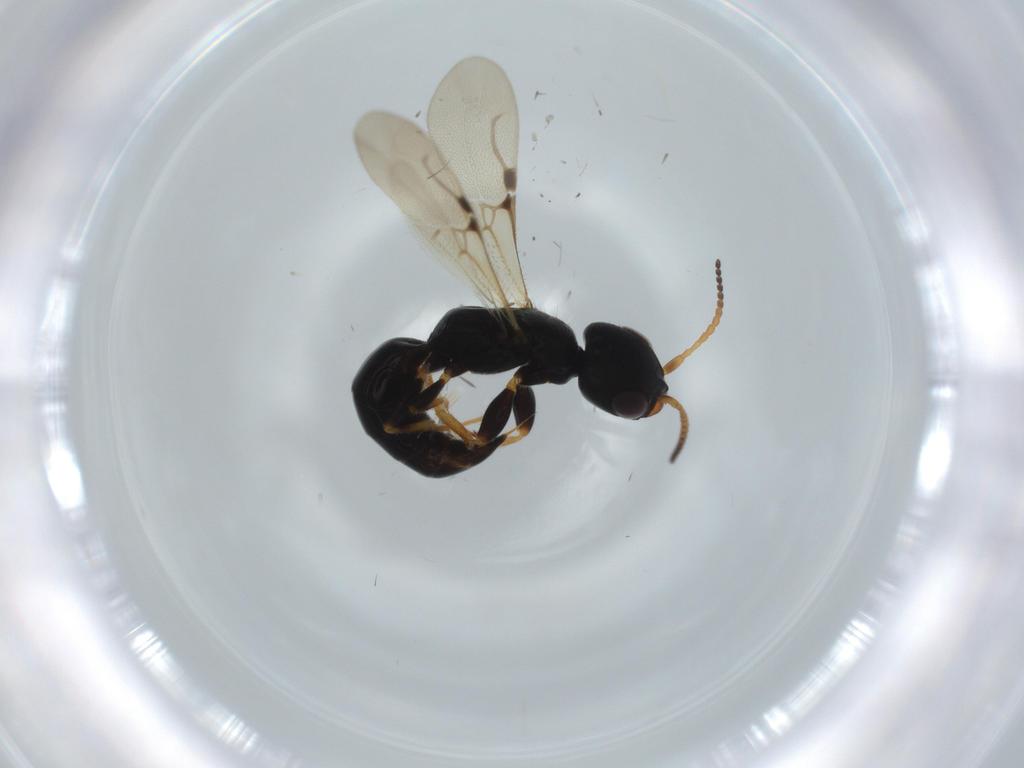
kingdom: Animalia
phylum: Arthropoda
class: Insecta
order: Hymenoptera
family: Bethylidae
